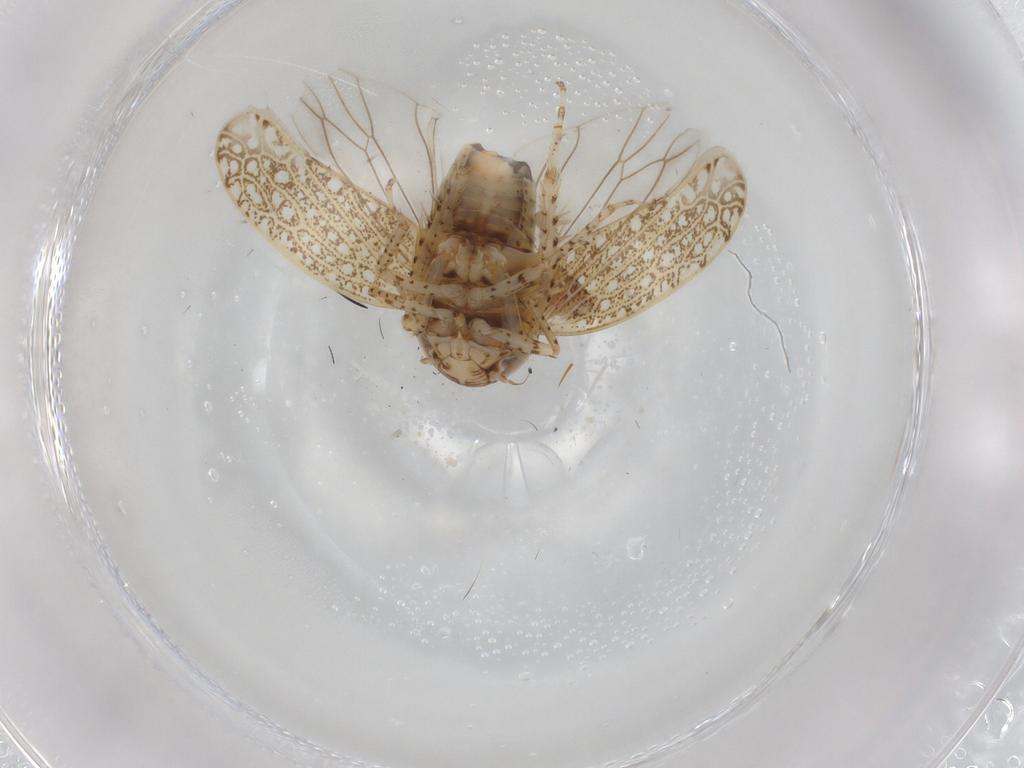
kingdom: Animalia
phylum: Arthropoda
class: Insecta
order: Hemiptera
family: Cicadellidae
